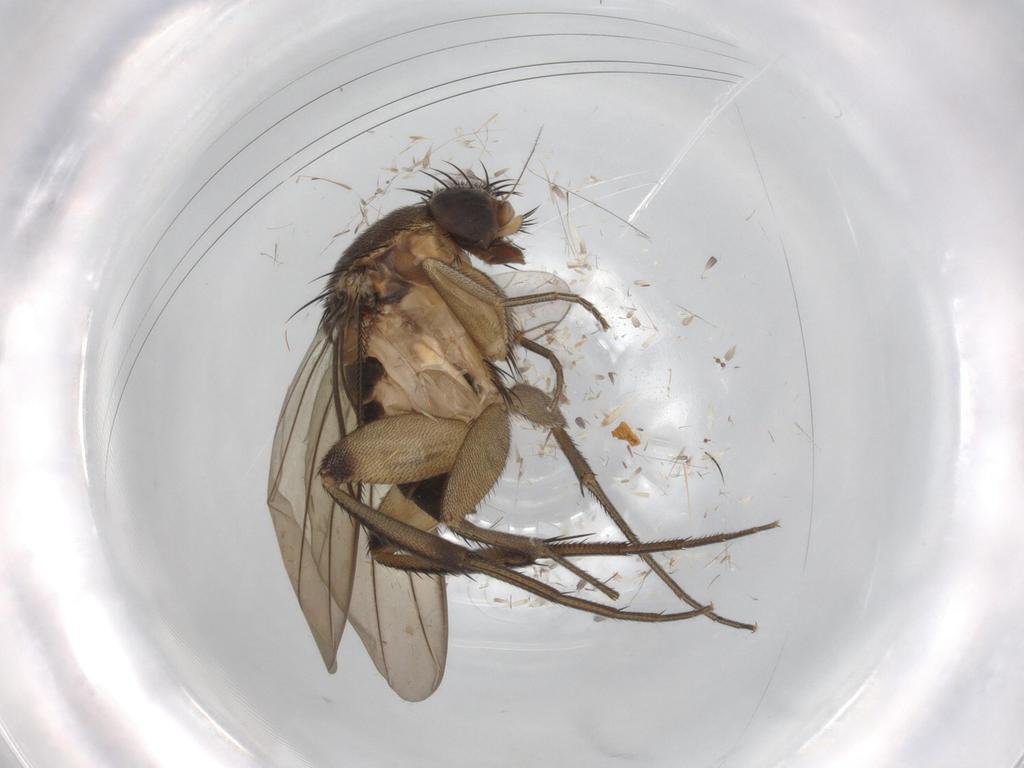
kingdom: Animalia
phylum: Arthropoda
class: Insecta
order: Diptera
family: Phoridae
